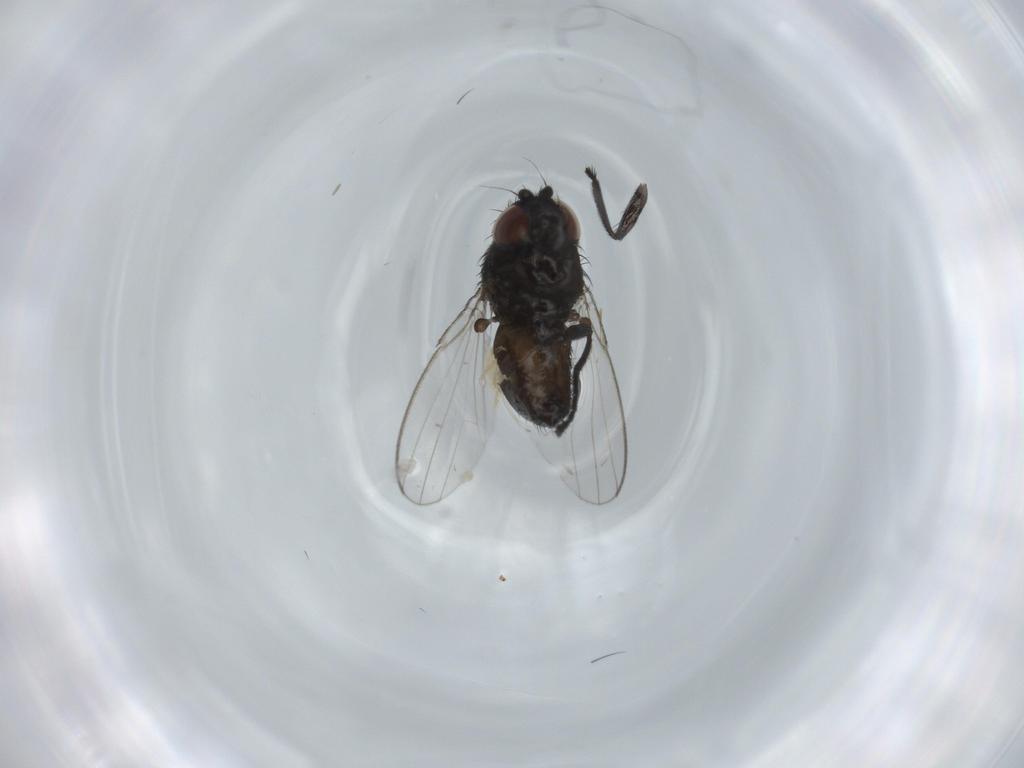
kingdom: Animalia
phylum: Arthropoda
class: Insecta
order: Diptera
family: Milichiidae
